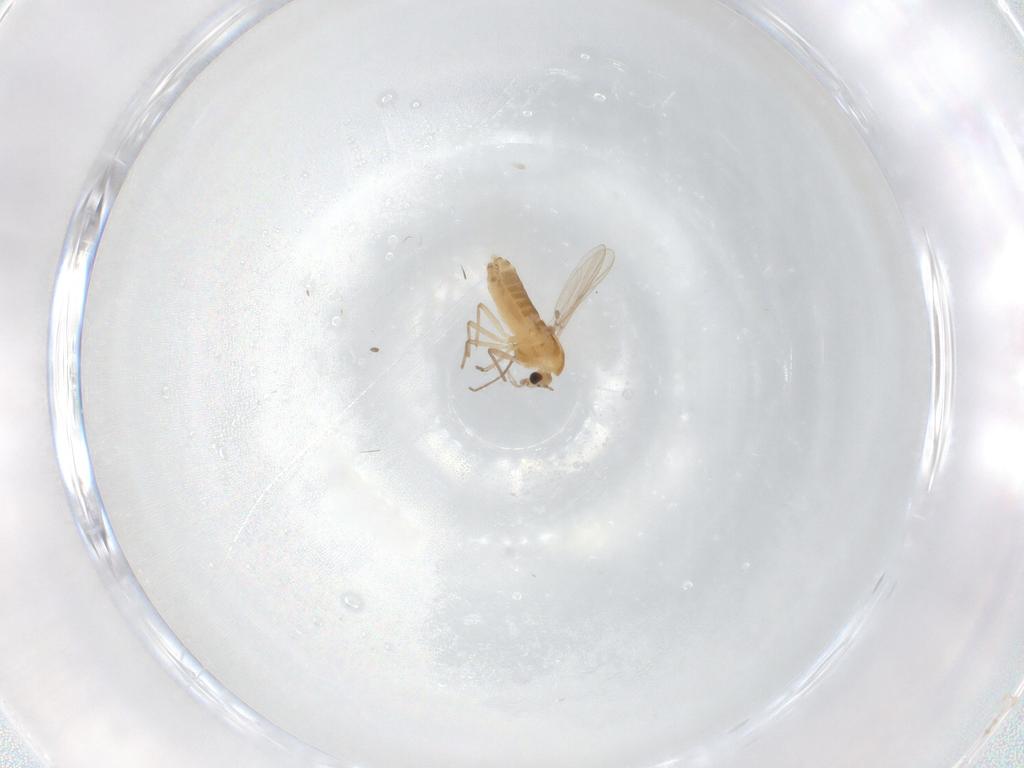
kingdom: Animalia
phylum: Arthropoda
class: Insecta
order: Diptera
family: Chironomidae
